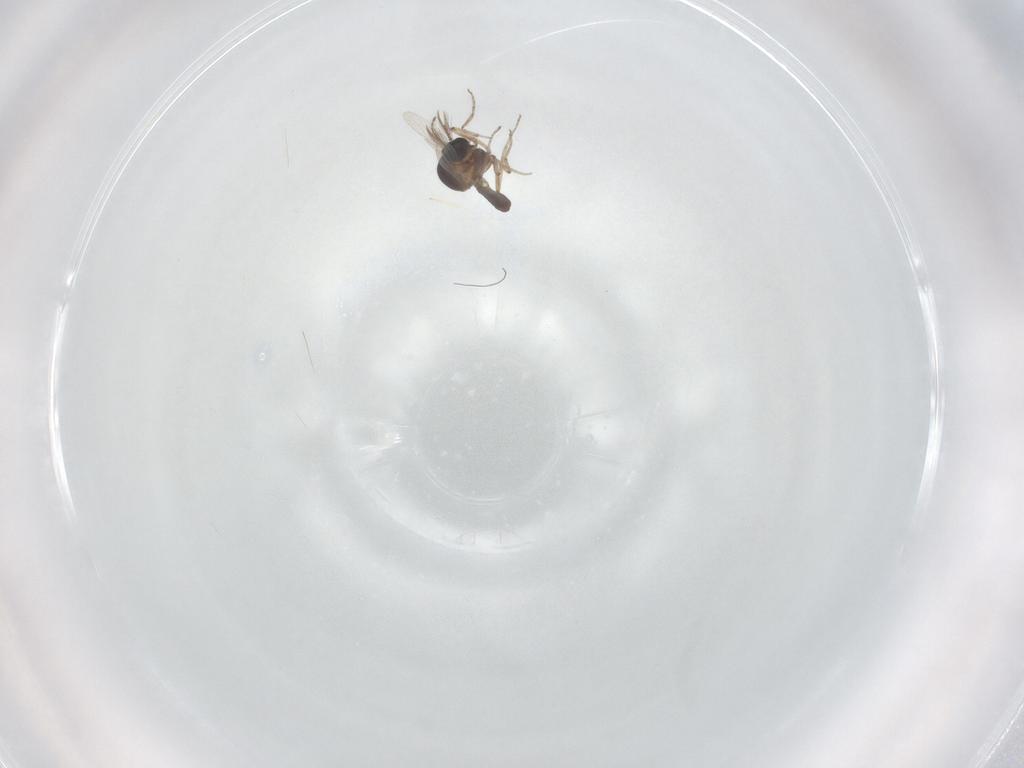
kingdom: Animalia
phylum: Arthropoda
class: Insecta
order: Diptera
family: Ceratopogonidae
